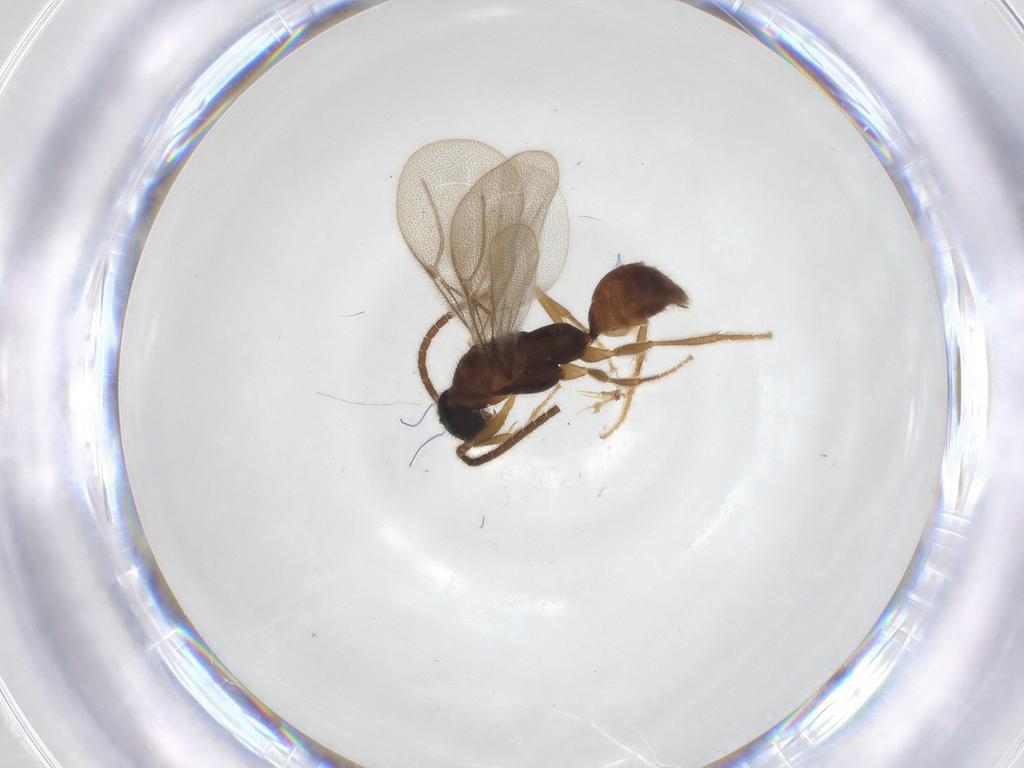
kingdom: Animalia
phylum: Arthropoda
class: Insecta
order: Hymenoptera
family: Bethylidae
